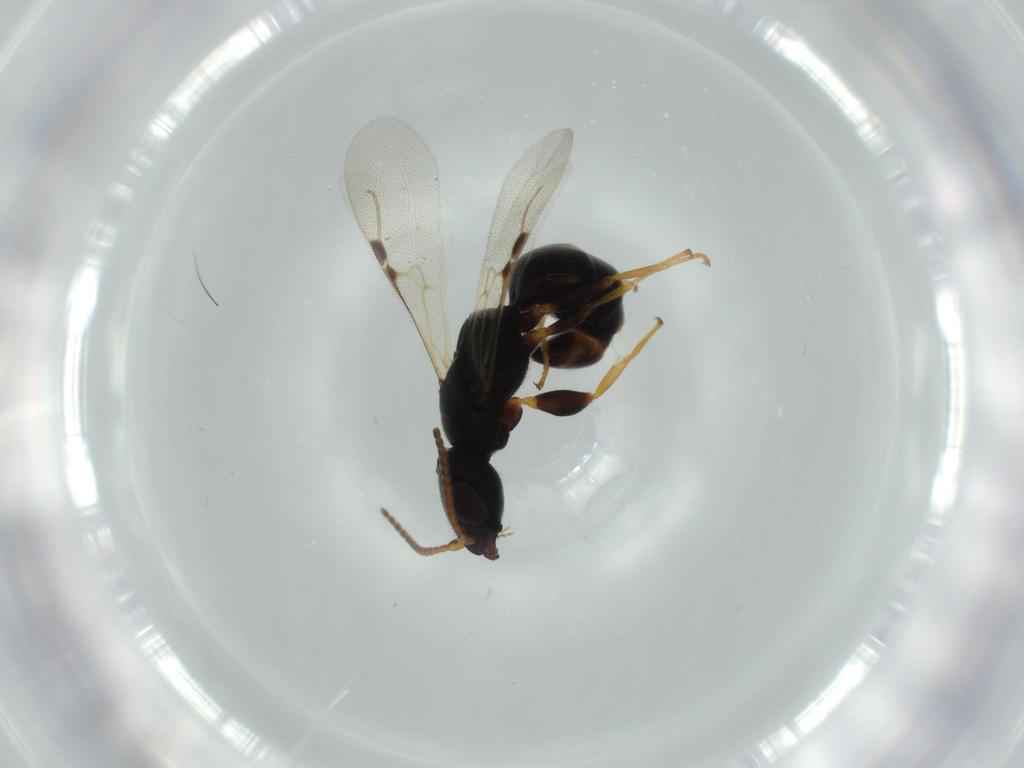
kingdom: Animalia
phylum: Arthropoda
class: Insecta
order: Hymenoptera
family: Bethylidae
